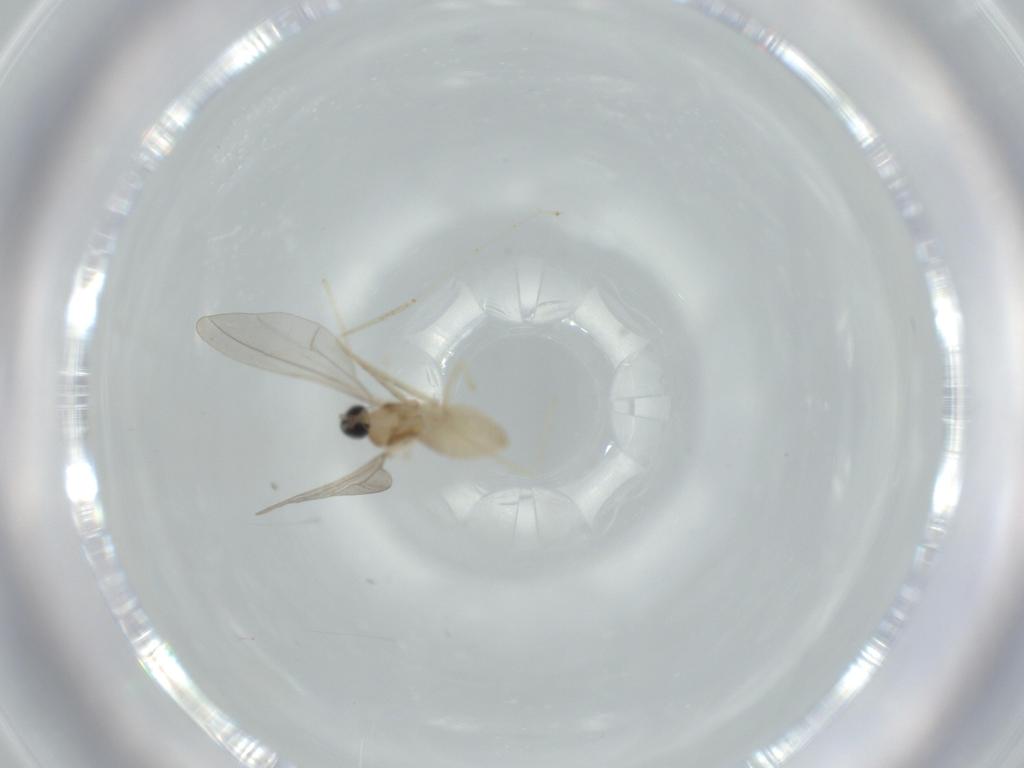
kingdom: Animalia
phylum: Arthropoda
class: Insecta
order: Diptera
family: Cecidomyiidae
